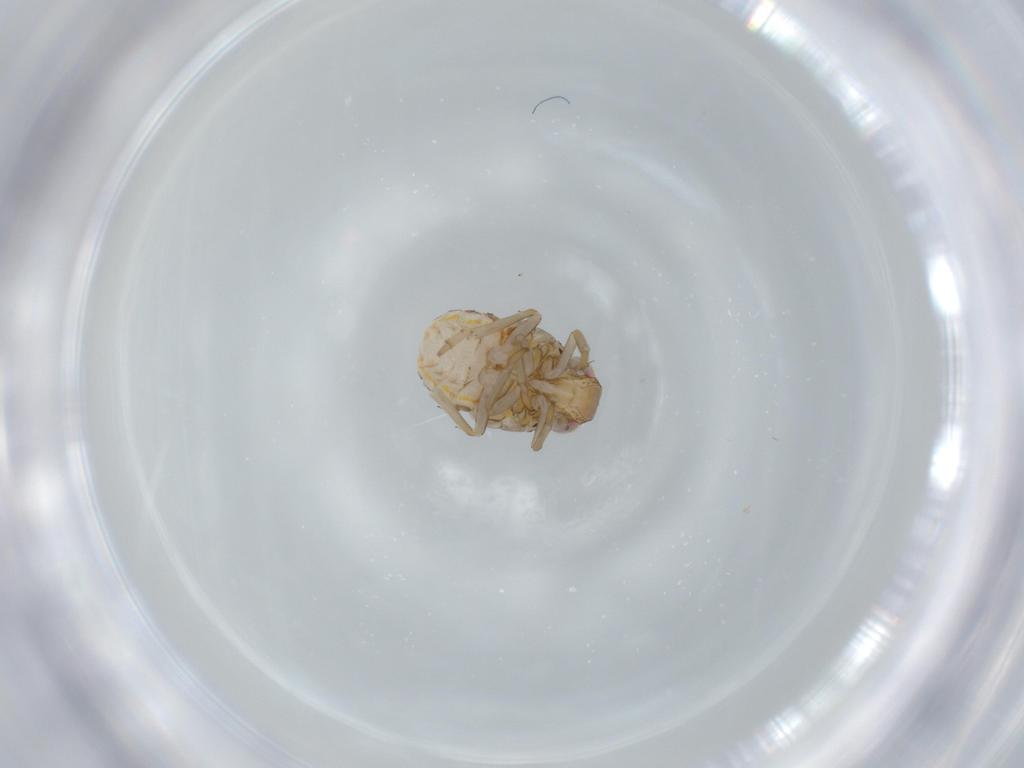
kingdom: Animalia
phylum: Arthropoda
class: Insecta
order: Hemiptera
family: Issidae
